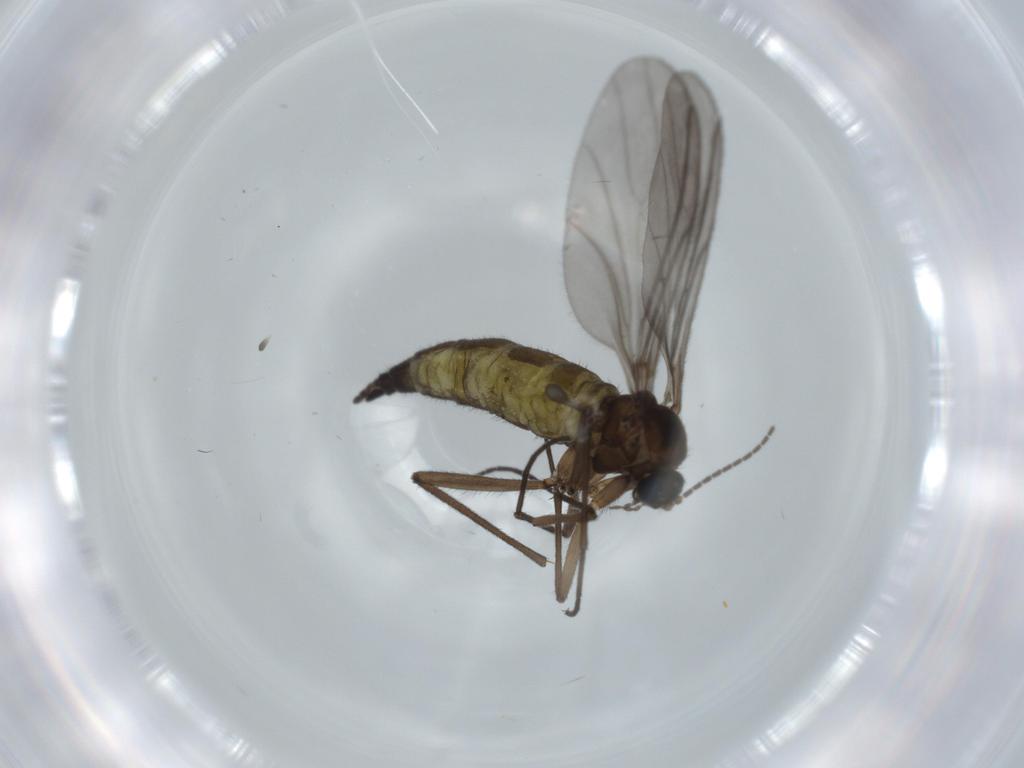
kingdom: Animalia
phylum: Arthropoda
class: Insecta
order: Diptera
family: Sciaridae
